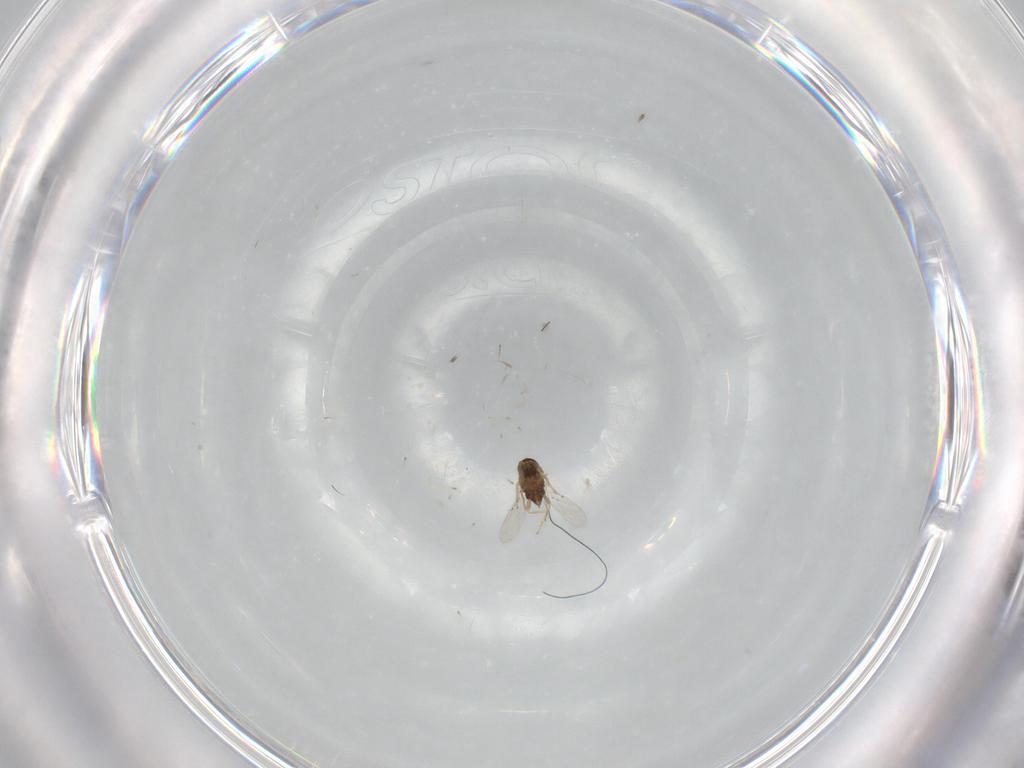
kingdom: Animalia
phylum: Arthropoda
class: Insecta
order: Hymenoptera
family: Encyrtidae
